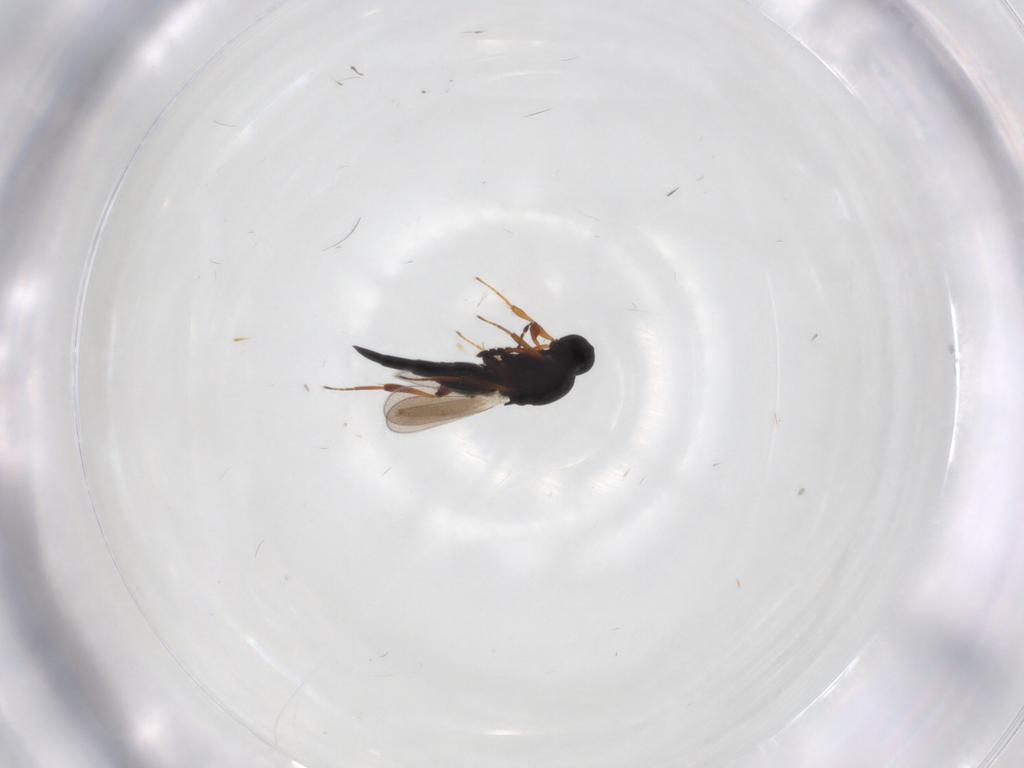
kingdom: Animalia
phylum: Arthropoda
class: Insecta
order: Hymenoptera
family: Platygastridae
